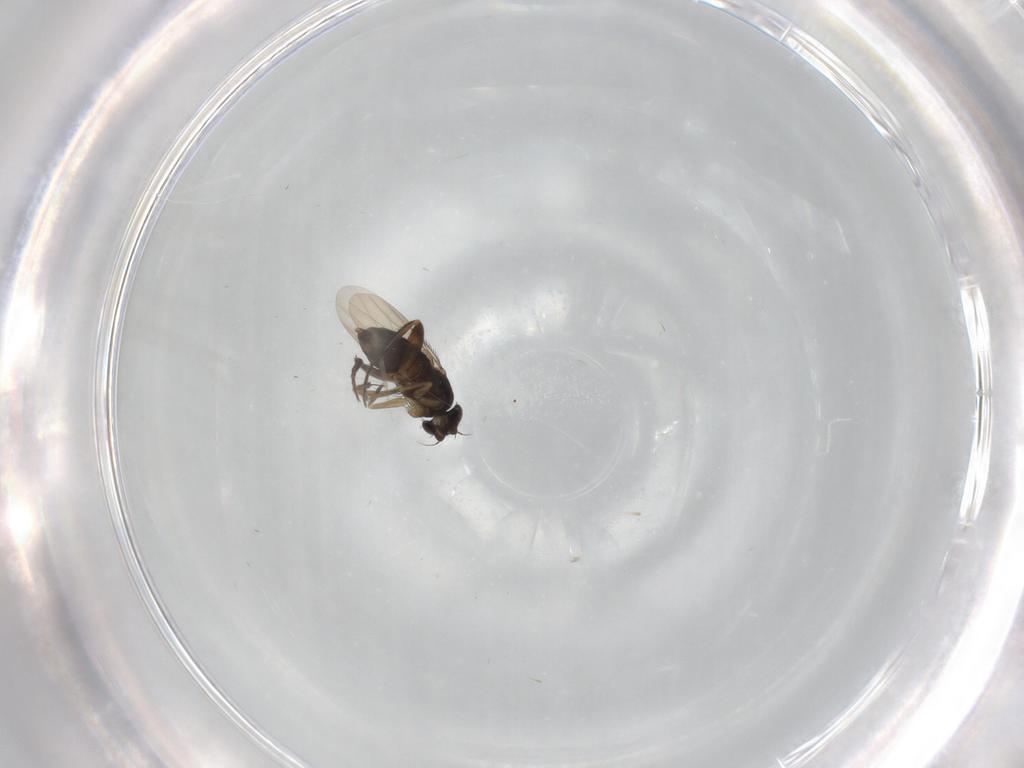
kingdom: Animalia
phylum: Arthropoda
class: Insecta
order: Diptera
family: Phoridae
